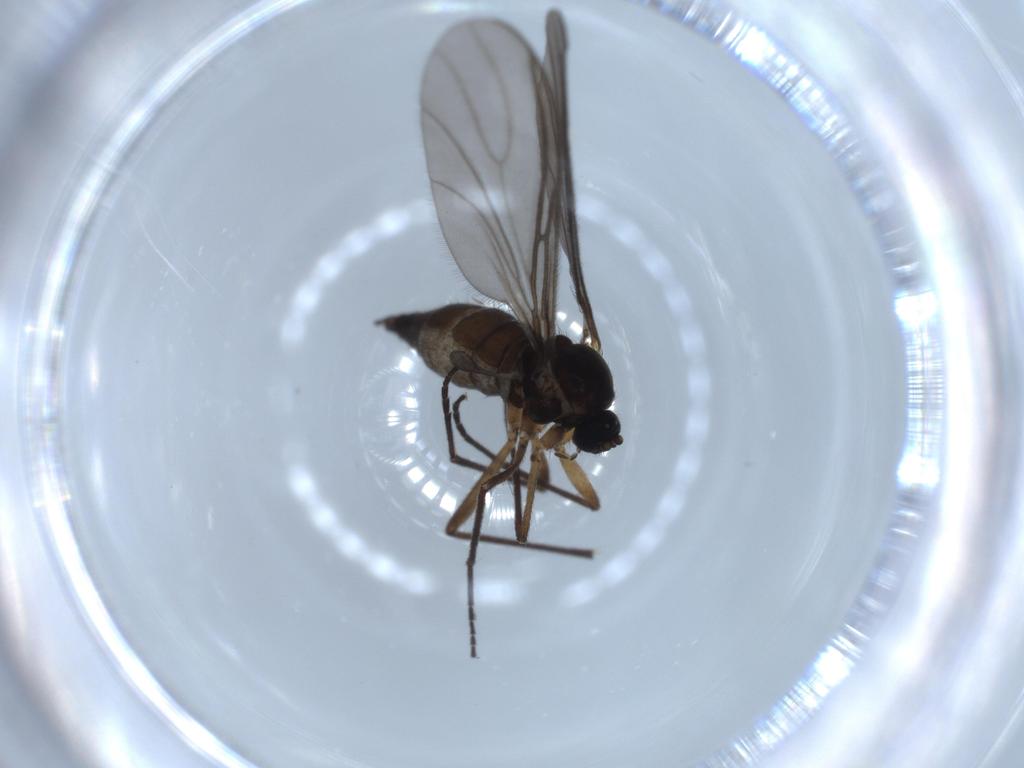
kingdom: Animalia
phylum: Arthropoda
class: Insecta
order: Diptera
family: Sciaridae
